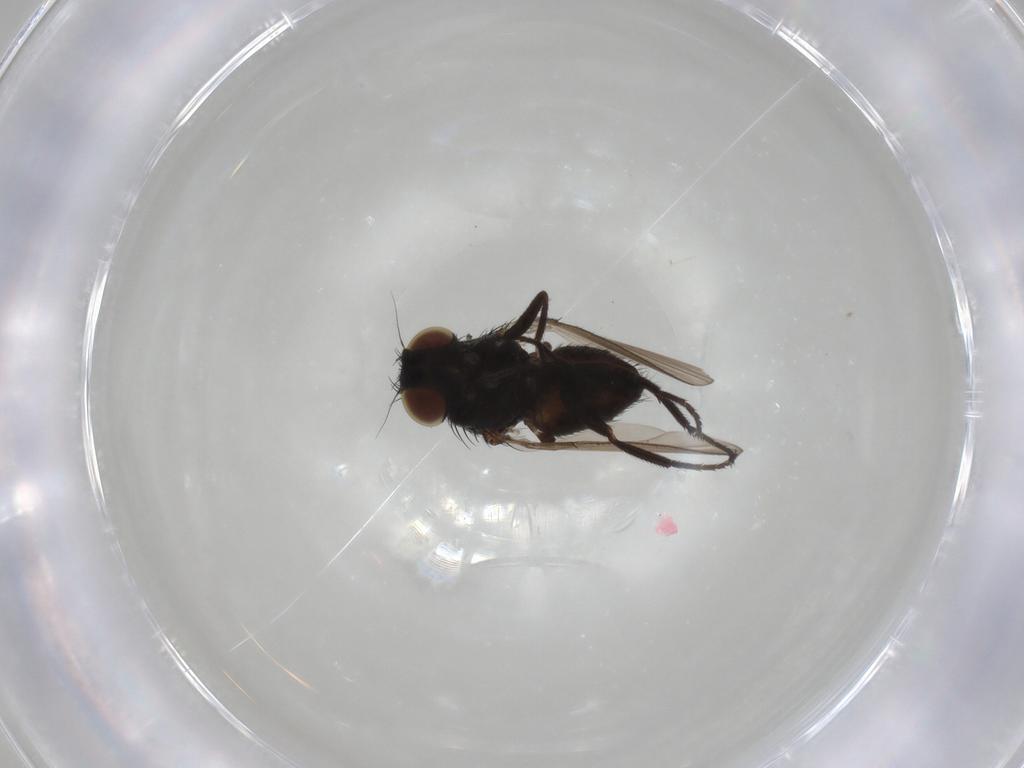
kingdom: Animalia
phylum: Arthropoda
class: Insecta
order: Diptera
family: Milichiidae
